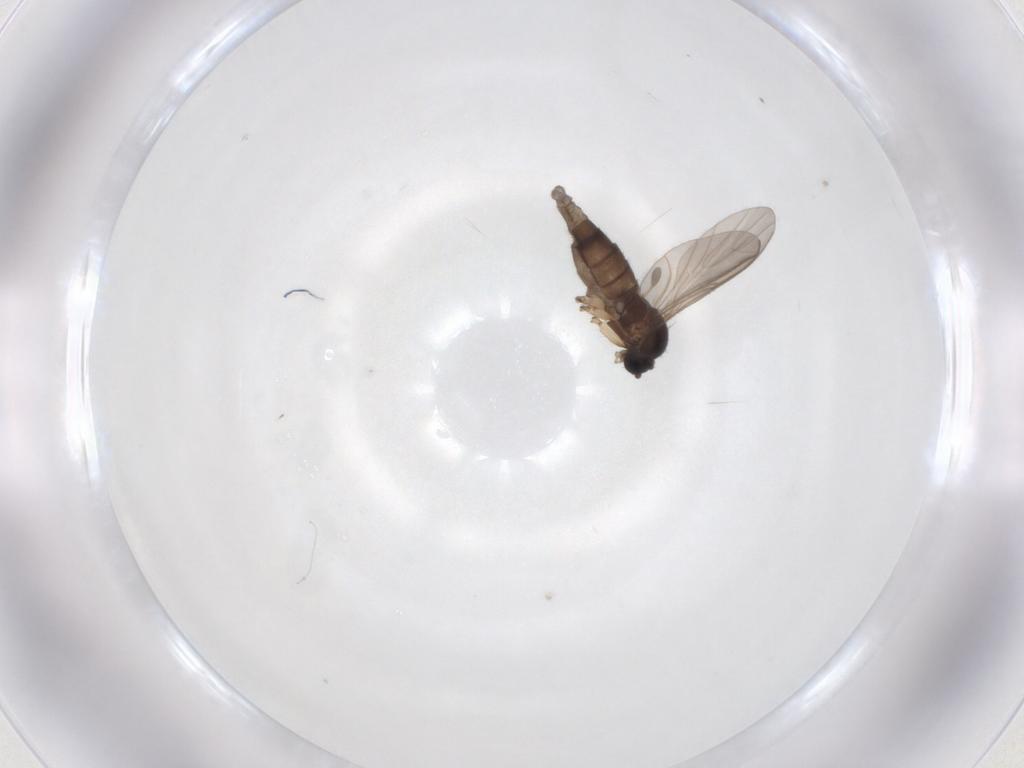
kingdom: Animalia
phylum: Arthropoda
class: Insecta
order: Diptera
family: Sciaridae
